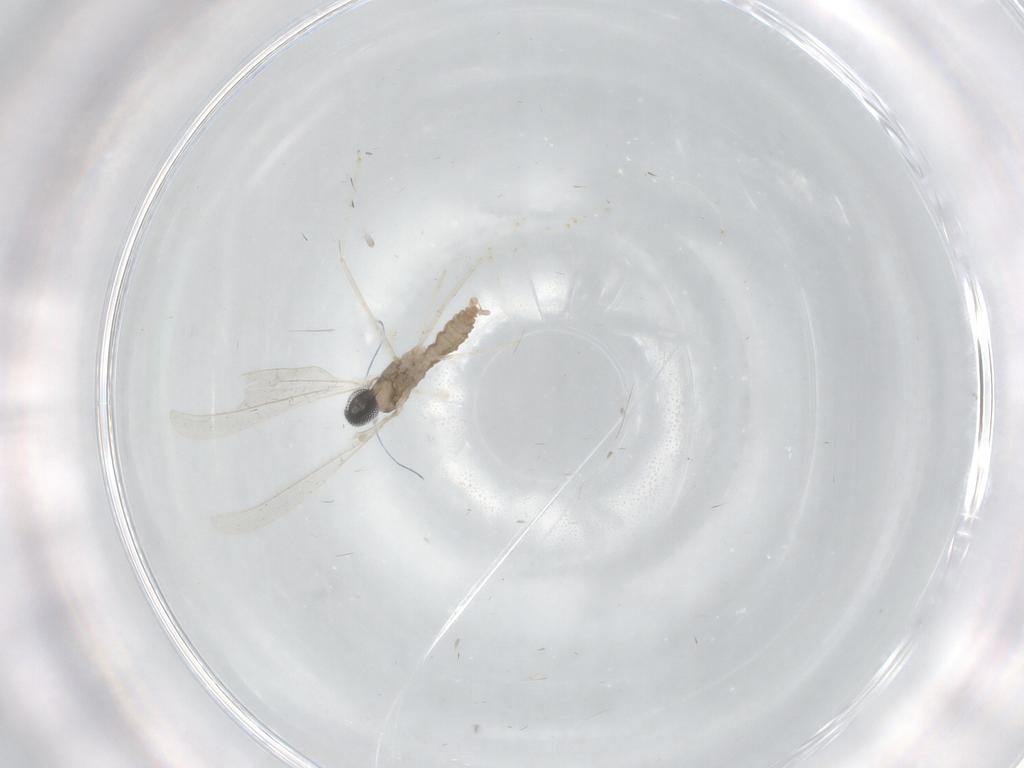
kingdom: Animalia
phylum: Arthropoda
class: Insecta
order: Diptera
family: Cecidomyiidae
